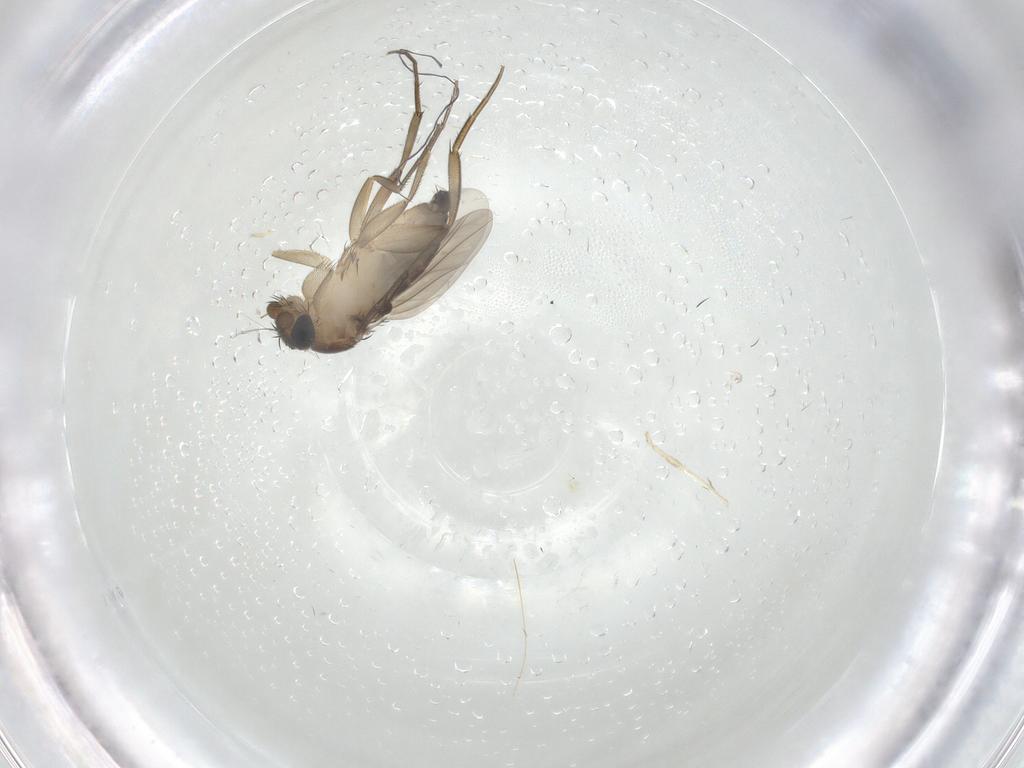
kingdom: Animalia
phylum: Arthropoda
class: Insecta
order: Diptera
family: Phoridae
